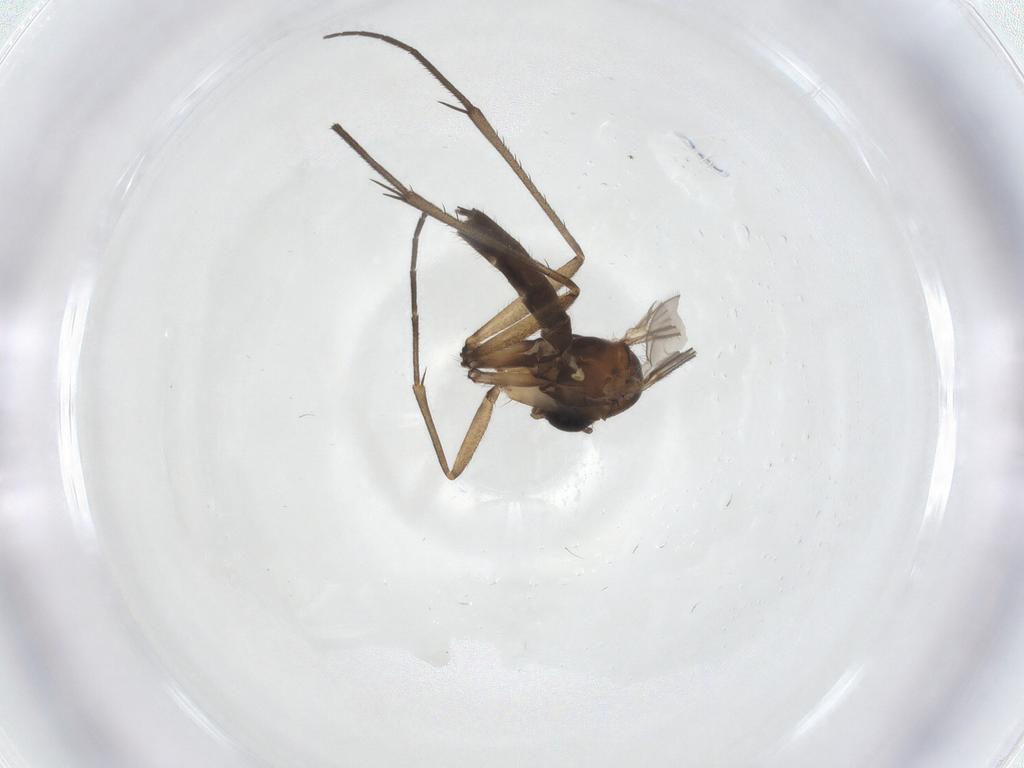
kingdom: Animalia
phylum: Arthropoda
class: Insecta
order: Diptera
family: Mycetophilidae
